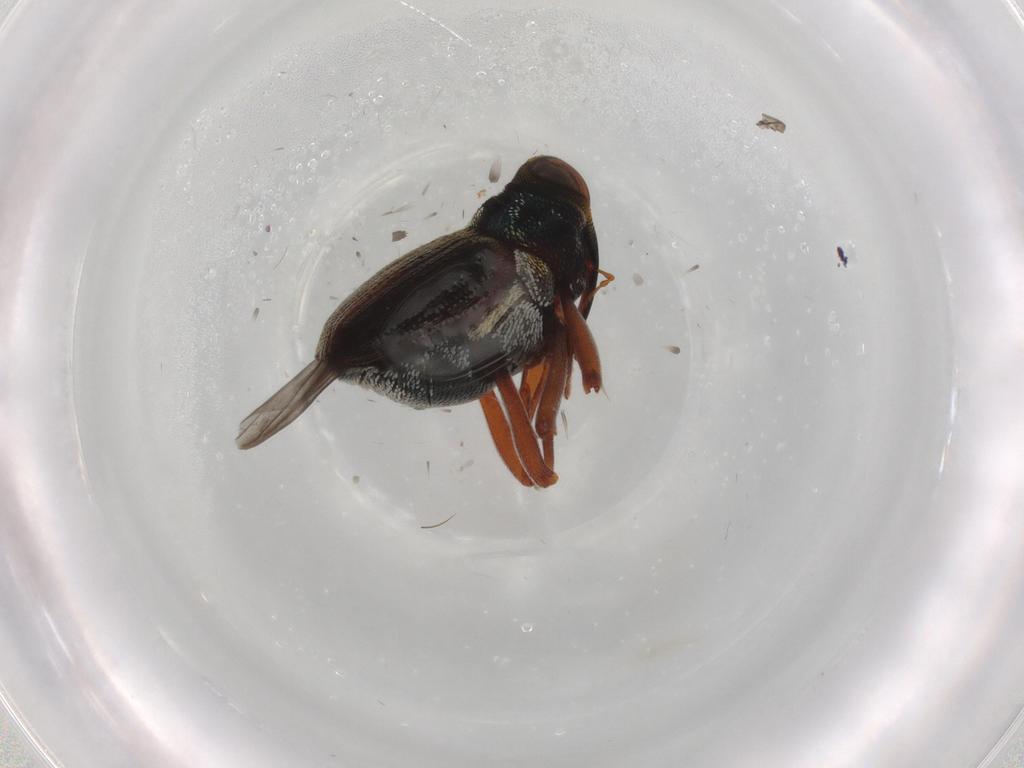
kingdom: Animalia
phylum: Arthropoda
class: Insecta
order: Coleoptera
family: Curculionidae
